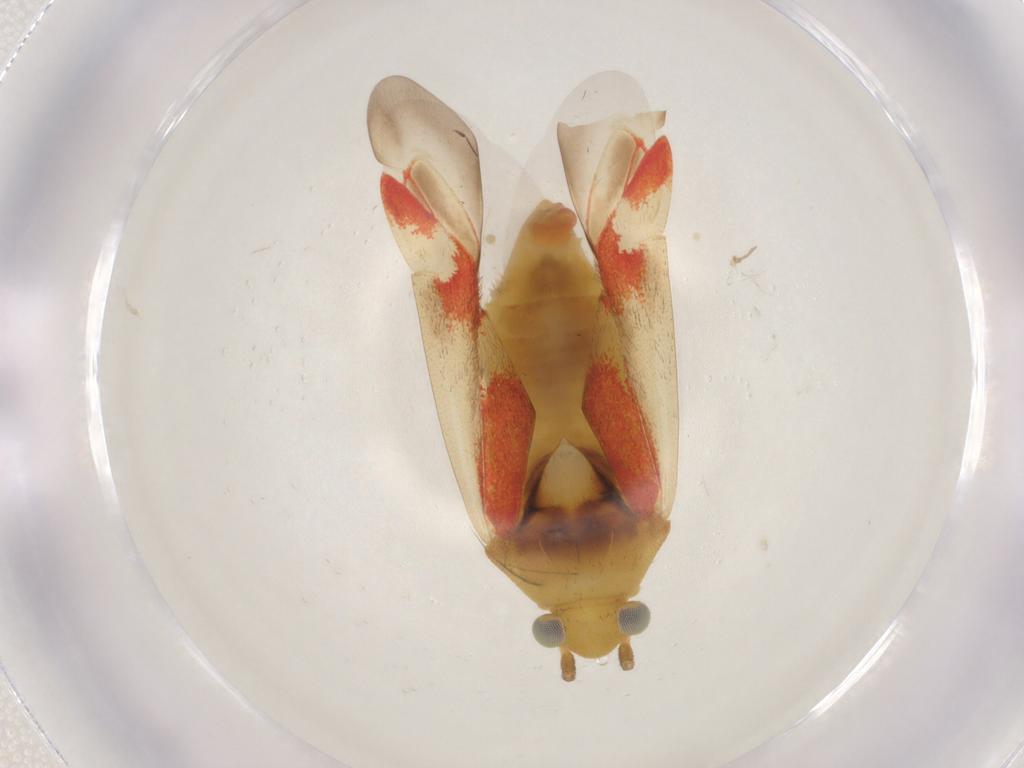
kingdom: Animalia
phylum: Arthropoda
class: Insecta
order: Hemiptera
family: Miridae
